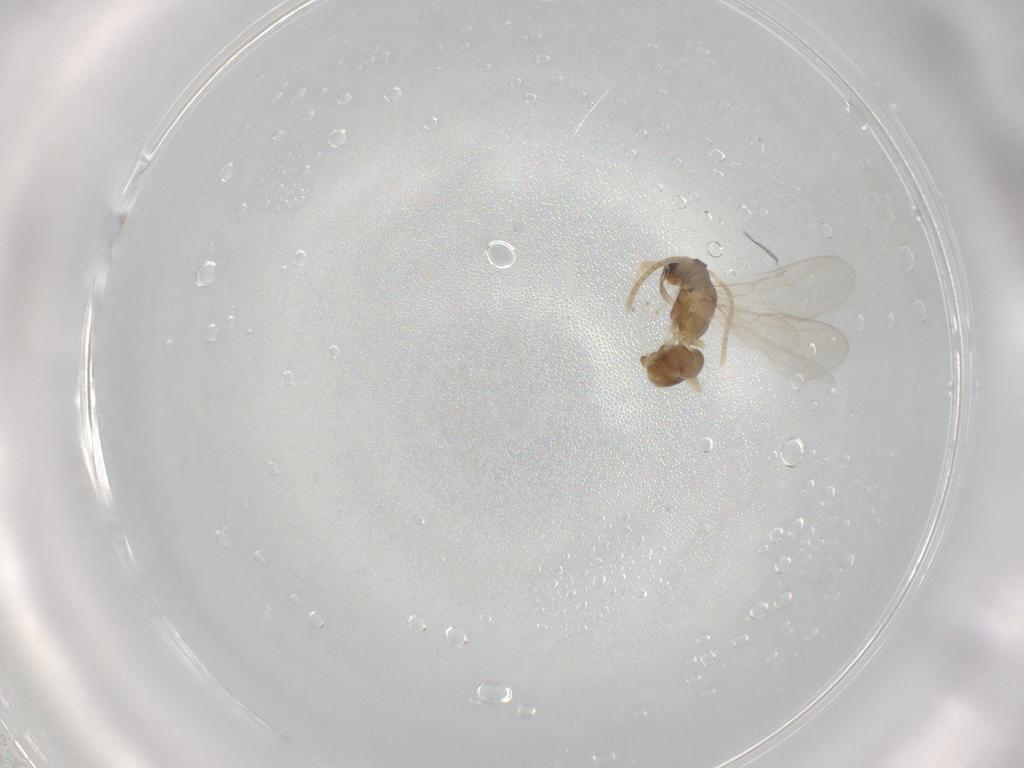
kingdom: Animalia
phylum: Arthropoda
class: Insecta
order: Hymenoptera
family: Formicidae
